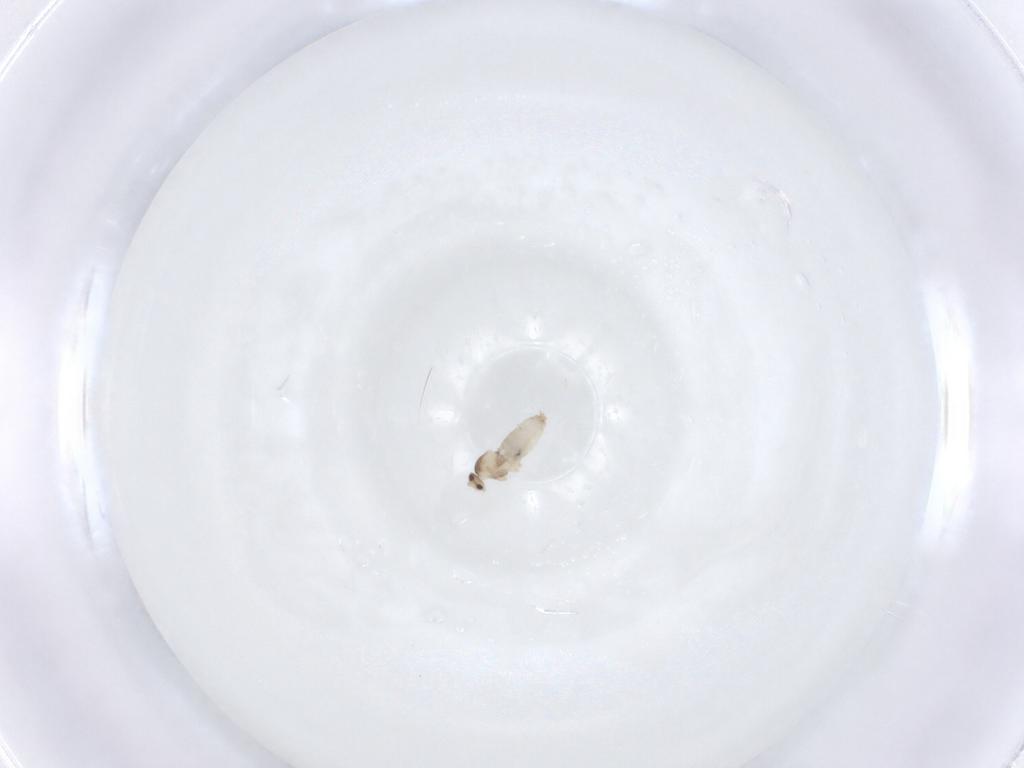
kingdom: Animalia
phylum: Arthropoda
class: Insecta
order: Diptera
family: Cecidomyiidae
